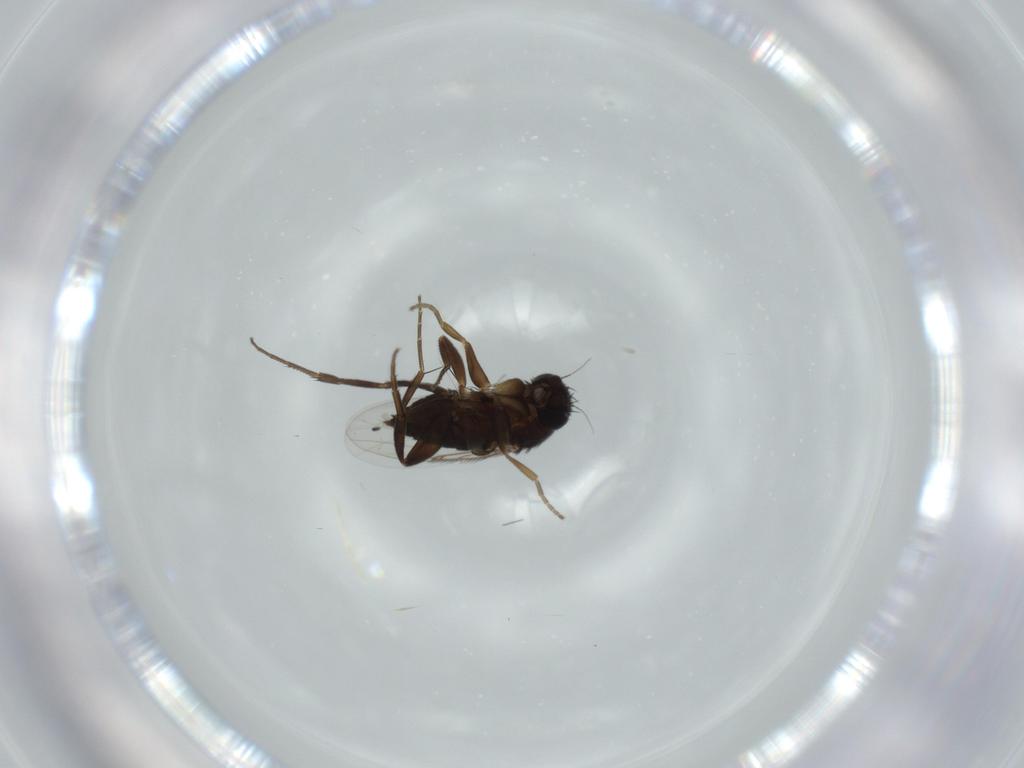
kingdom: Animalia
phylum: Arthropoda
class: Insecta
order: Diptera
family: Phoridae
